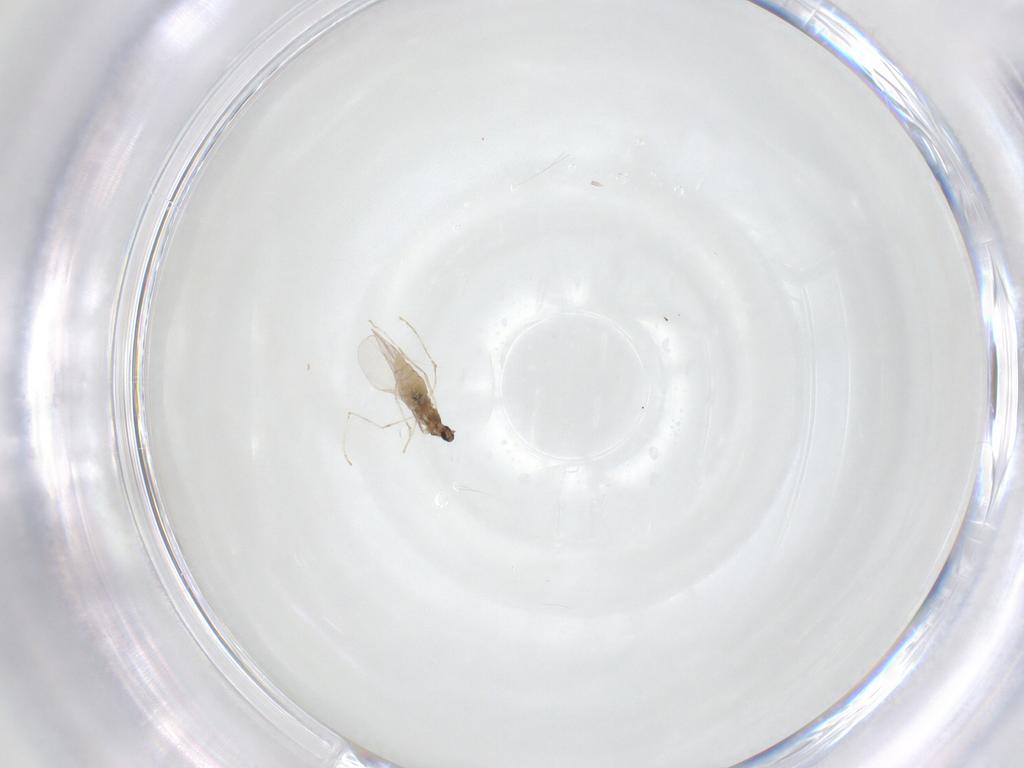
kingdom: Animalia
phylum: Arthropoda
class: Insecta
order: Diptera
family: Cecidomyiidae
